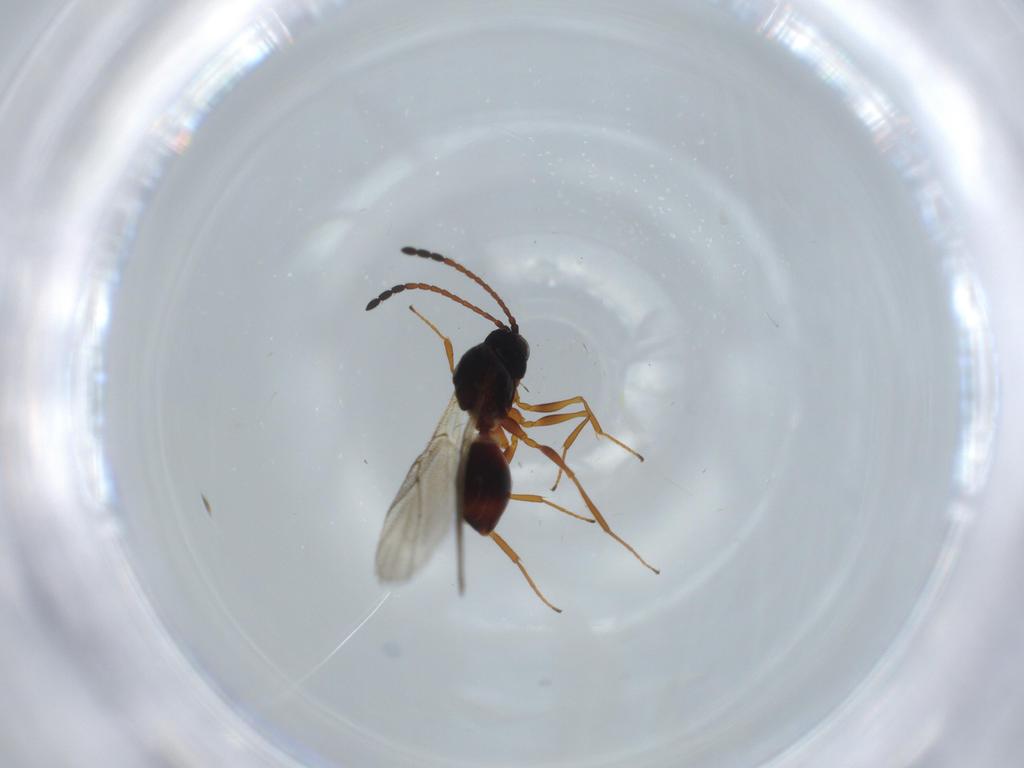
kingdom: Animalia
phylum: Arthropoda
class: Insecta
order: Hymenoptera
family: Figitidae
